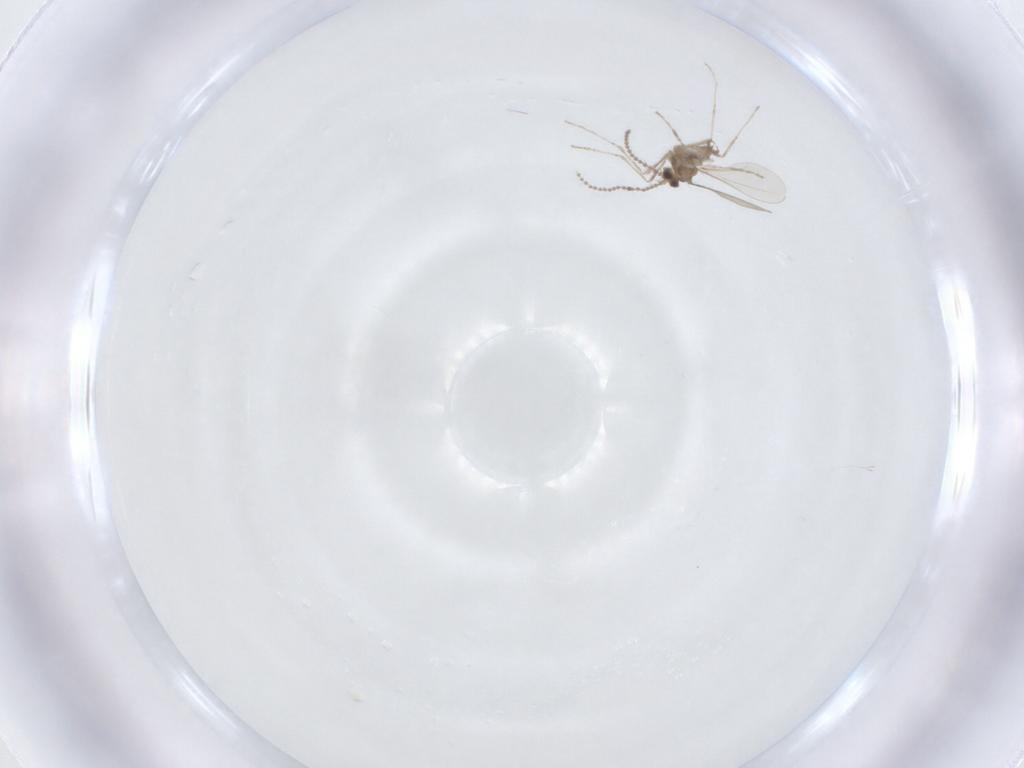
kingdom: Animalia
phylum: Arthropoda
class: Insecta
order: Diptera
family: Cecidomyiidae
